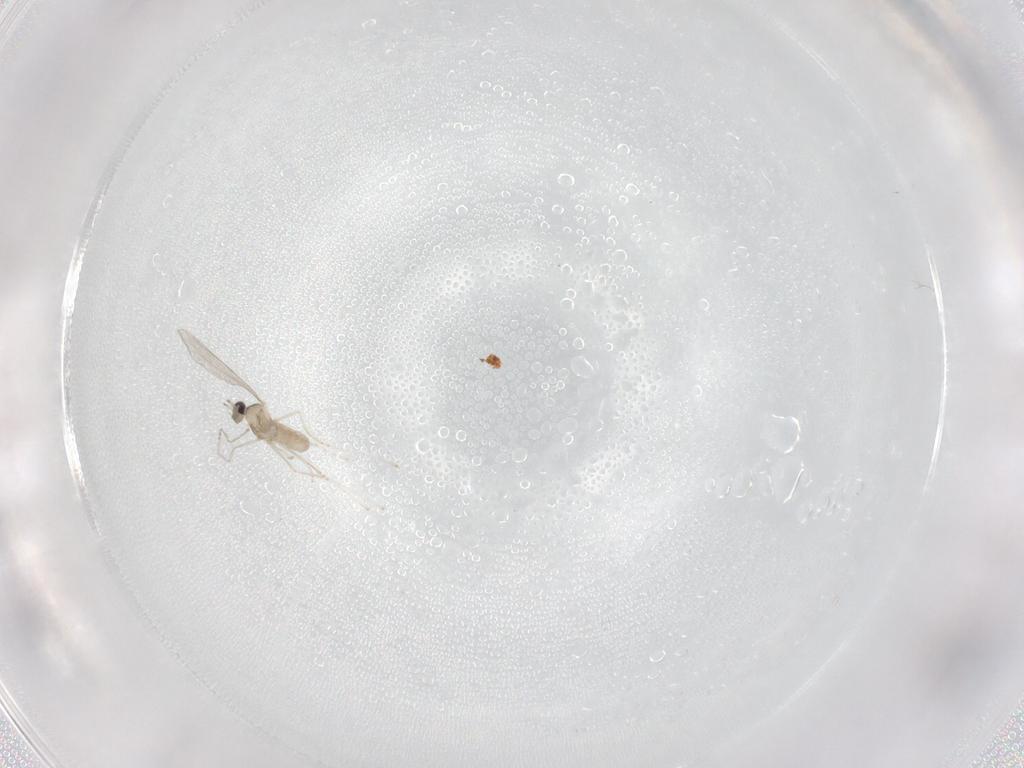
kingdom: Animalia
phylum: Arthropoda
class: Insecta
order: Diptera
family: Cecidomyiidae
